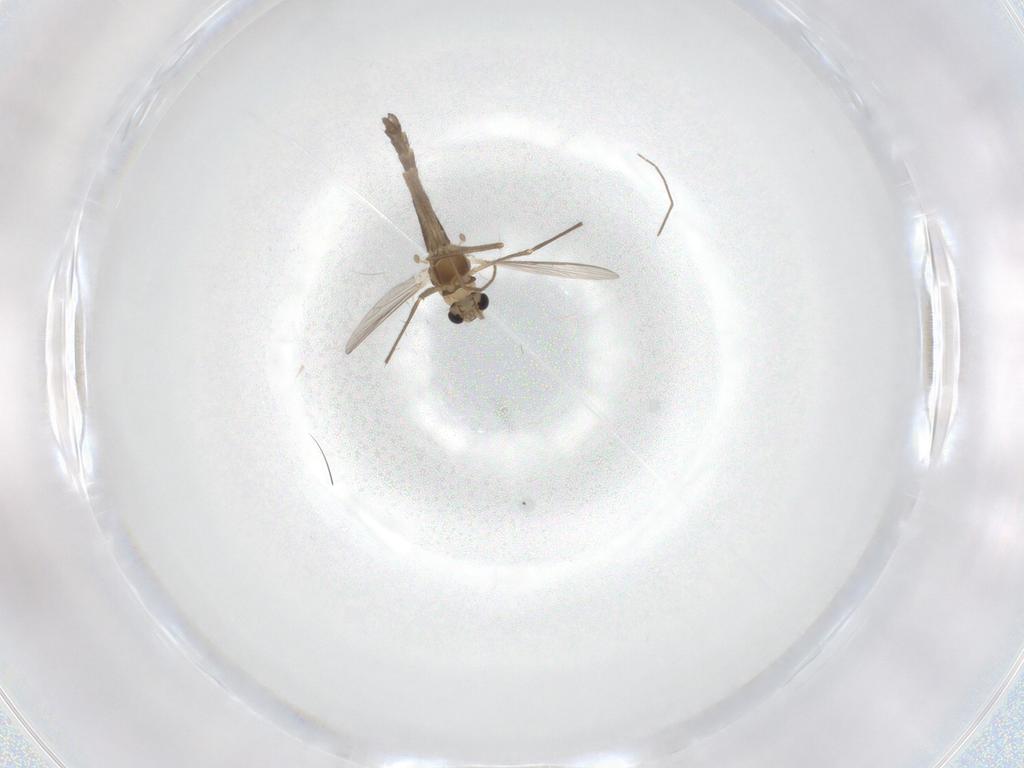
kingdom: Animalia
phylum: Arthropoda
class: Insecta
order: Diptera
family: Chironomidae
